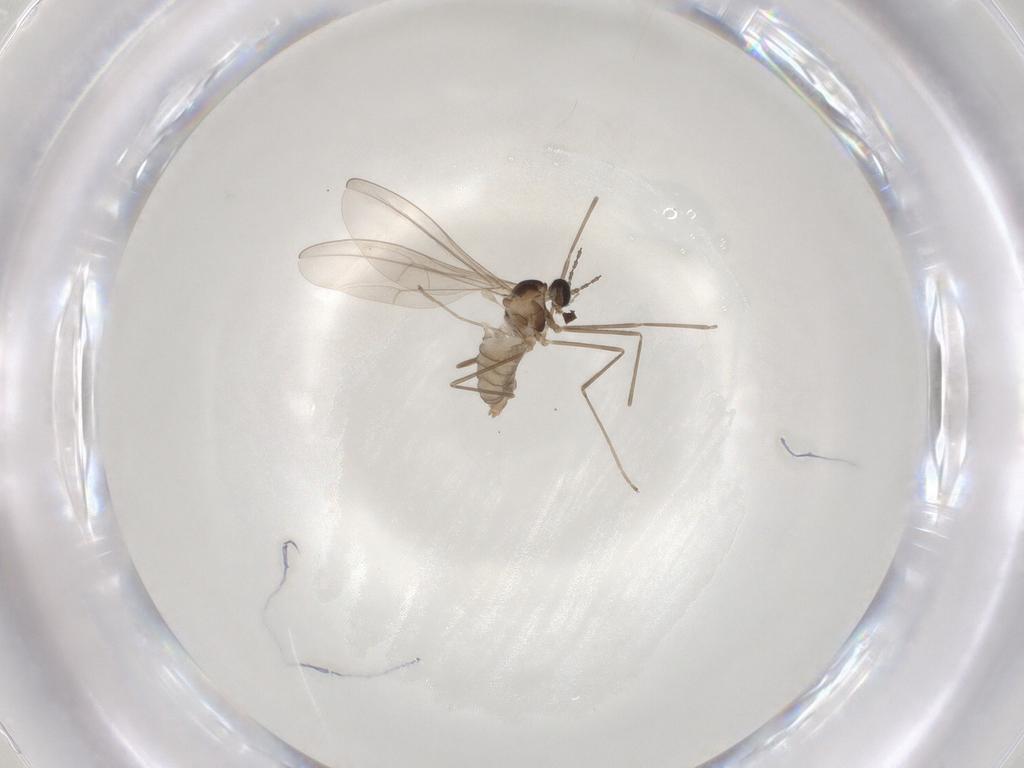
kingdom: Animalia
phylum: Arthropoda
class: Insecta
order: Diptera
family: Cecidomyiidae
